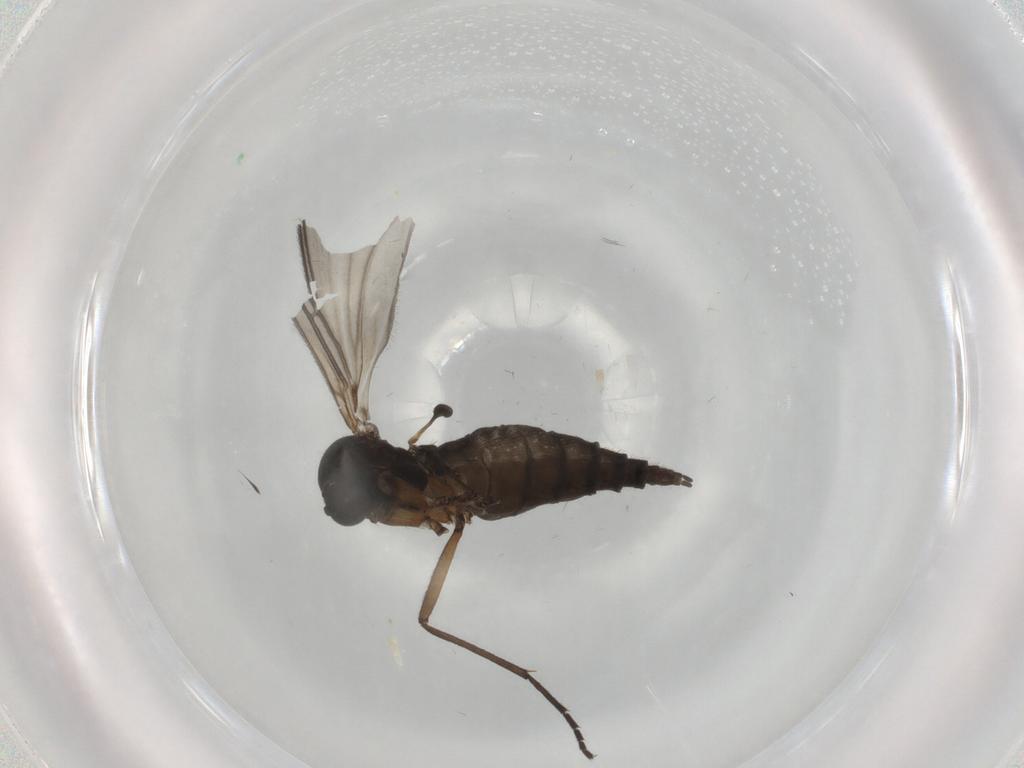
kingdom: Animalia
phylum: Arthropoda
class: Insecta
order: Diptera
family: Sciaridae
